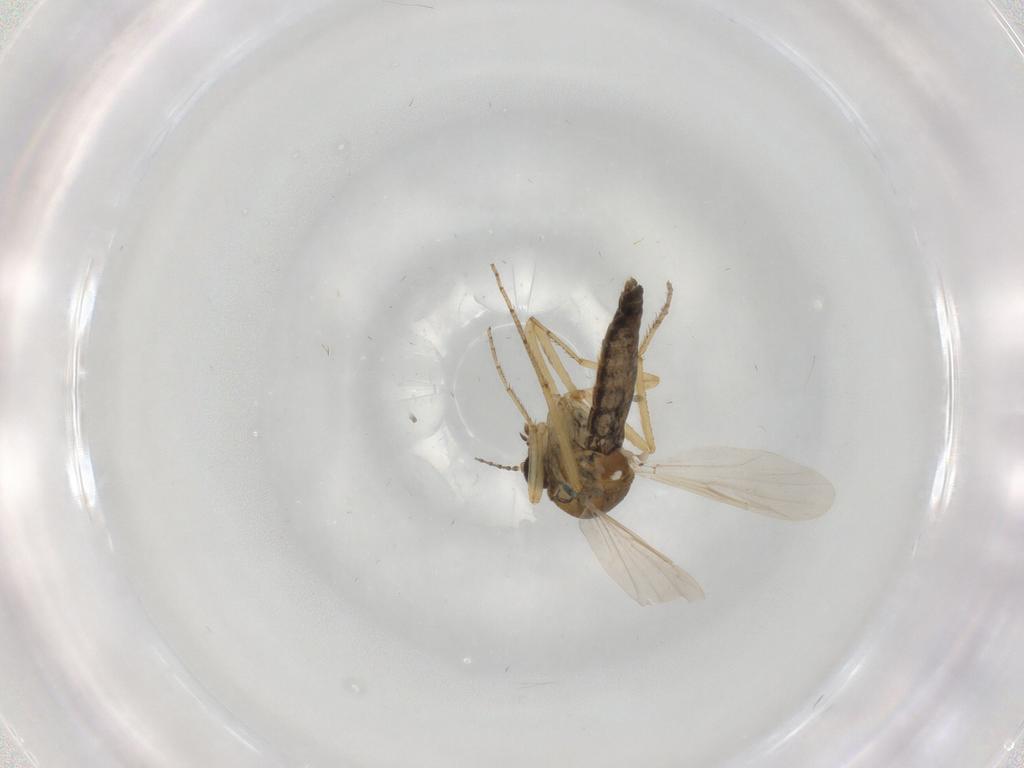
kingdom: Animalia
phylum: Arthropoda
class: Insecta
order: Diptera
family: Ceratopogonidae
